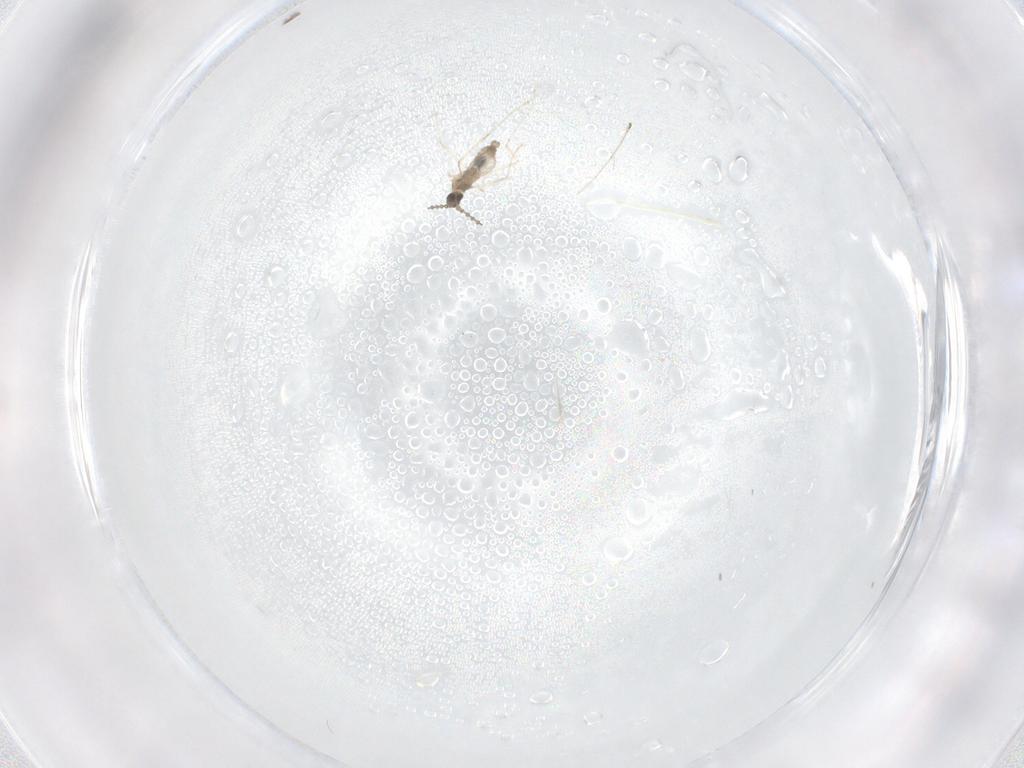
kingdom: Animalia
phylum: Arthropoda
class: Insecta
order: Diptera
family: Cecidomyiidae
